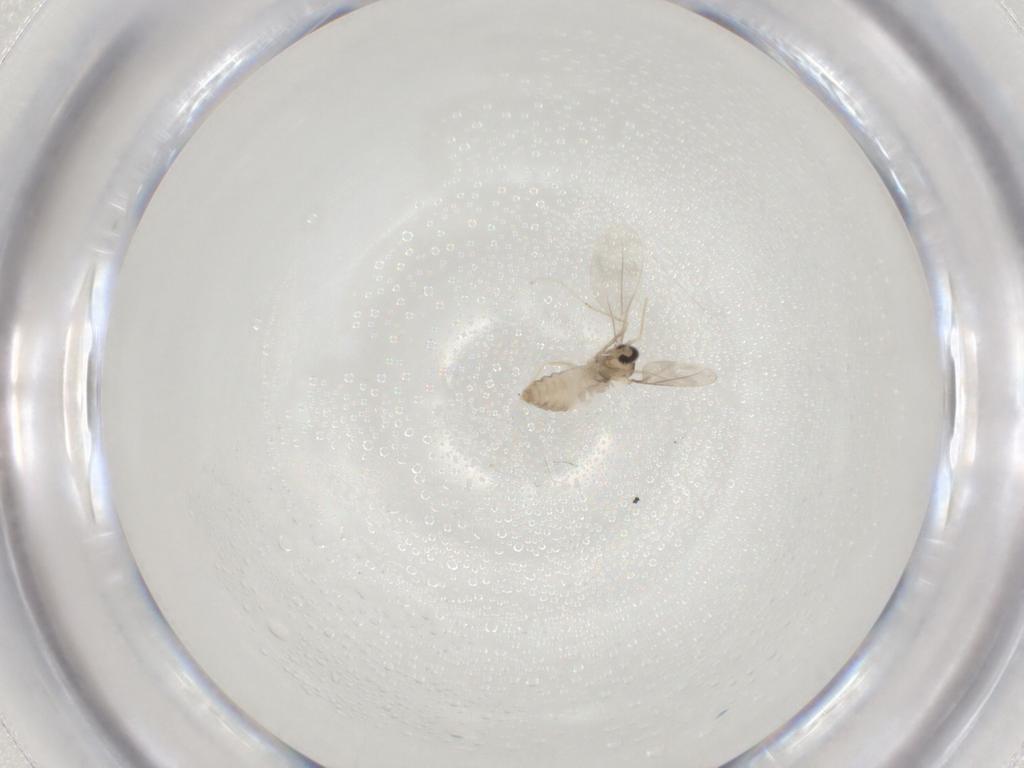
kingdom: Animalia
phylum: Arthropoda
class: Insecta
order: Diptera
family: Cecidomyiidae
